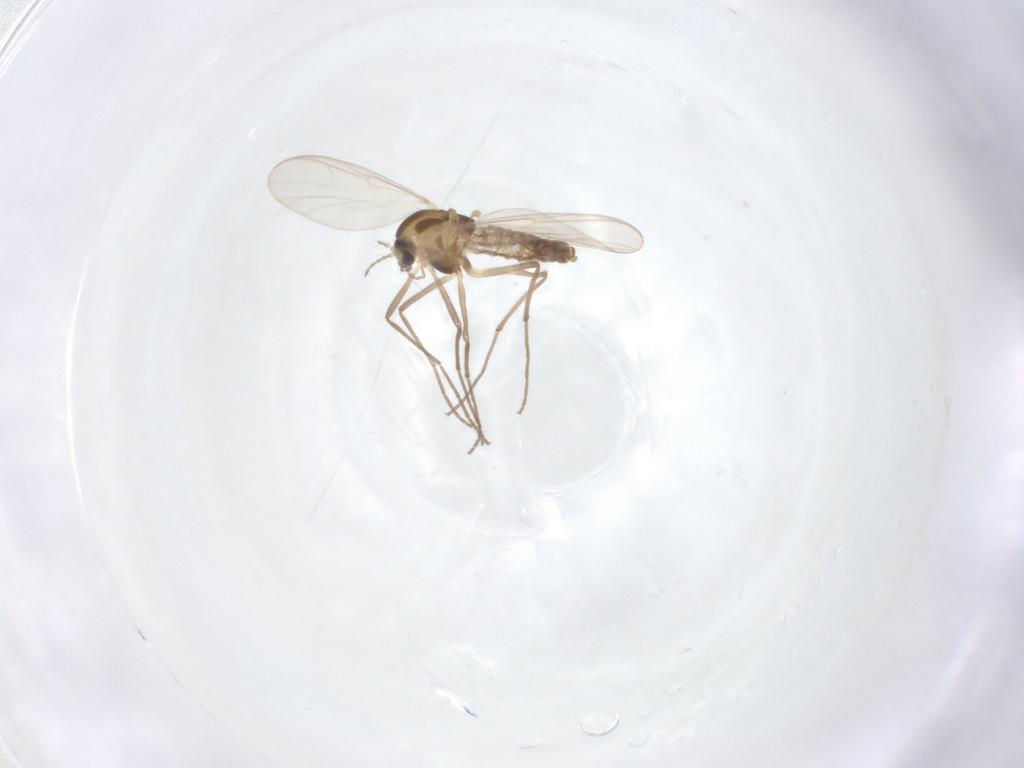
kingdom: Animalia
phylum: Arthropoda
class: Insecta
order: Diptera
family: Chironomidae
